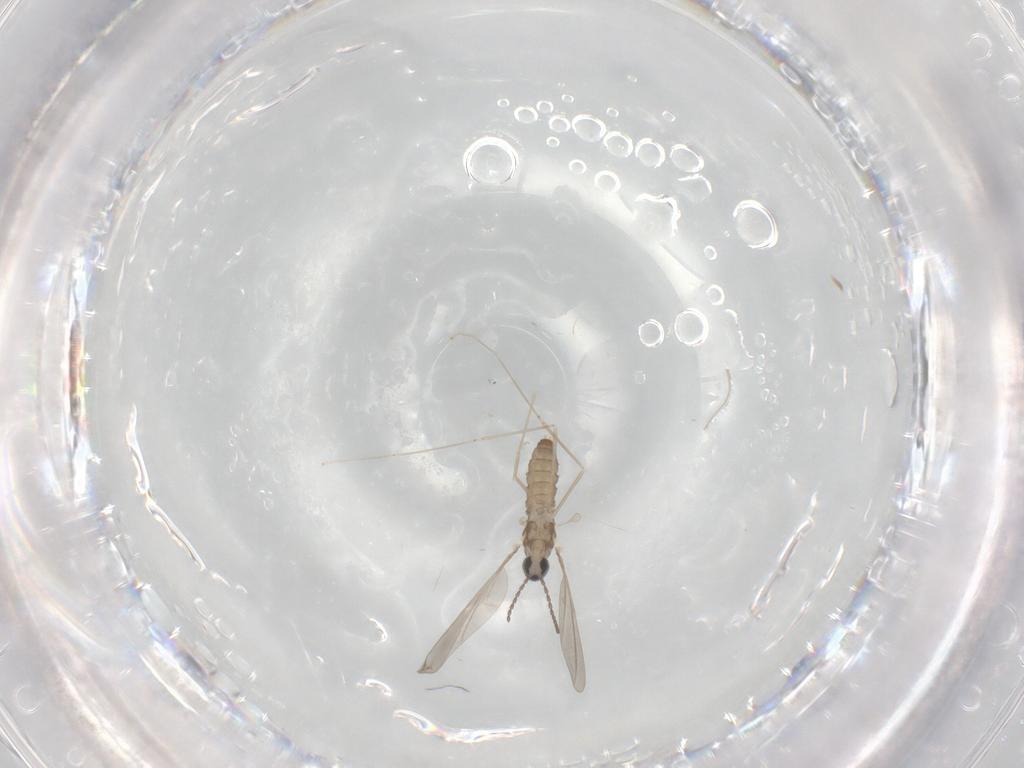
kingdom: Animalia
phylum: Arthropoda
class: Insecta
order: Diptera
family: Cecidomyiidae
